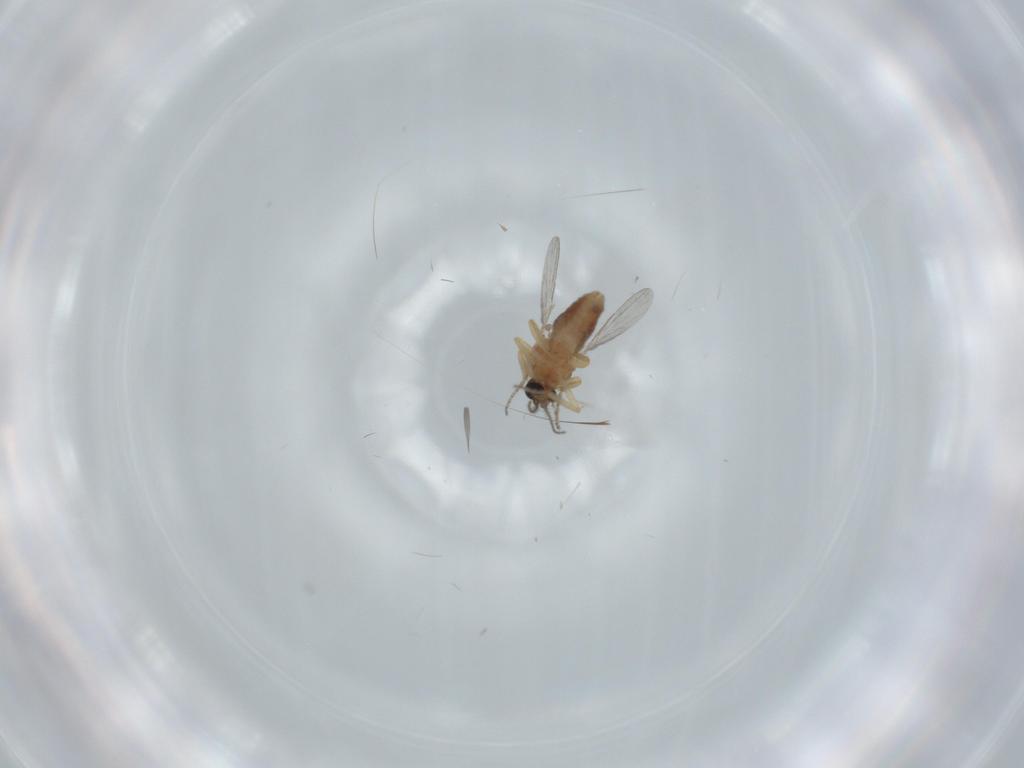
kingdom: Animalia
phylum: Arthropoda
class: Insecta
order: Diptera
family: Ceratopogonidae
